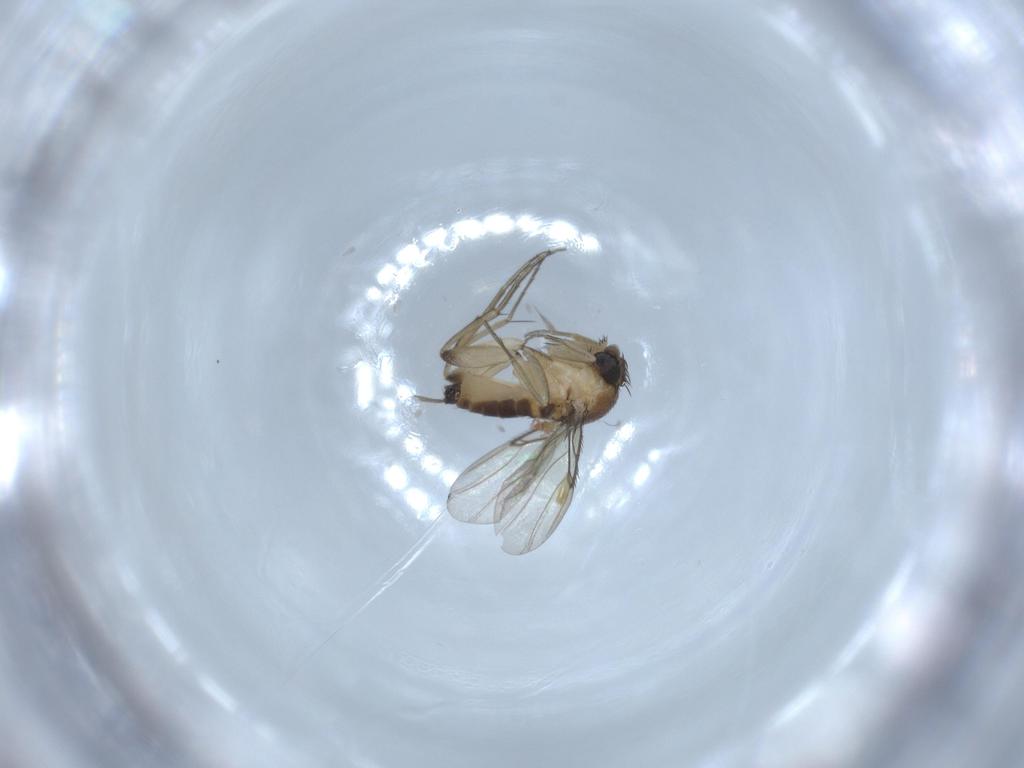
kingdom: Animalia
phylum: Arthropoda
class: Insecta
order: Diptera
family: Phoridae
